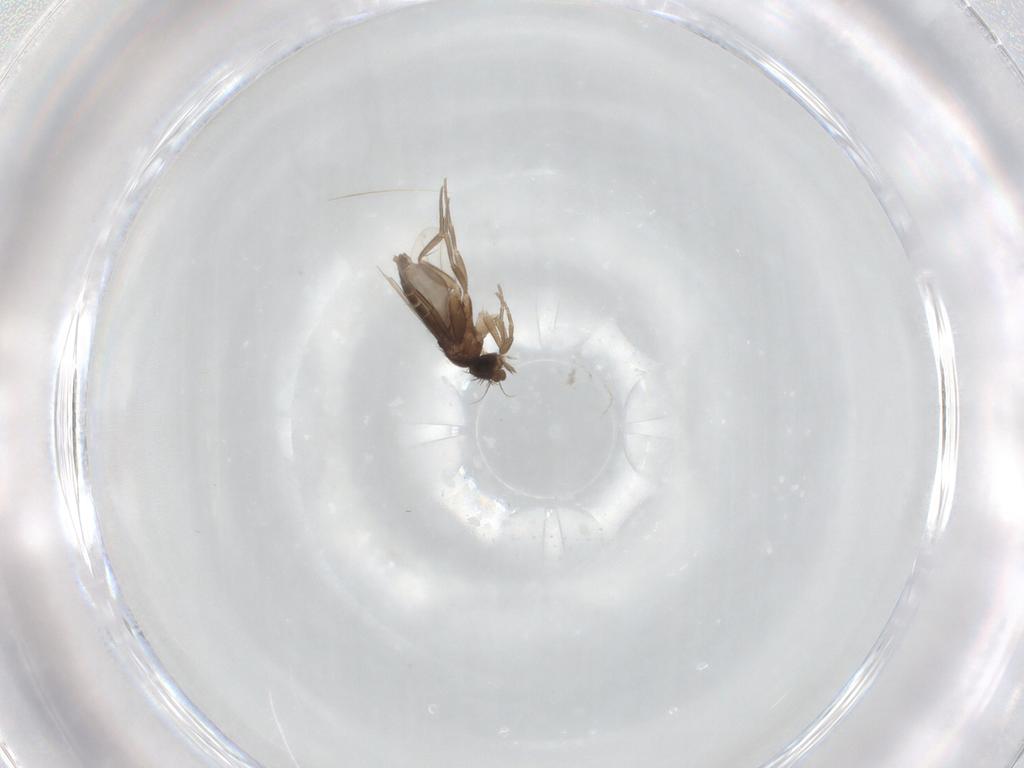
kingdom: Animalia
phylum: Arthropoda
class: Insecta
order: Diptera
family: Phoridae
